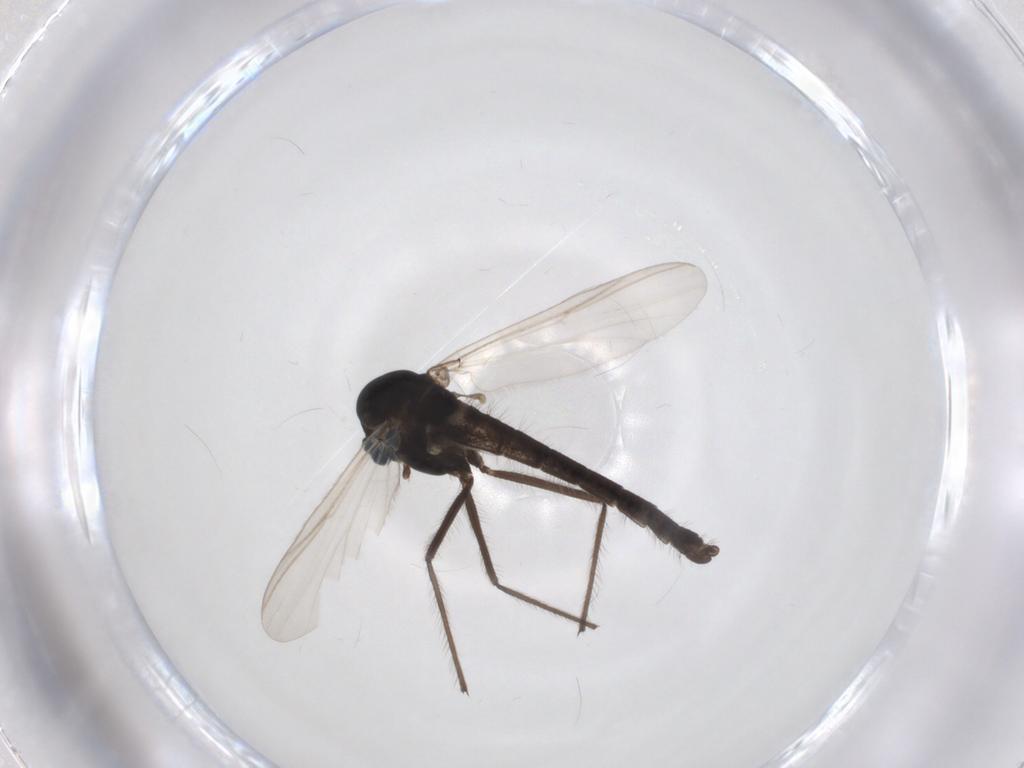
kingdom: Animalia
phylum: Arthropoda
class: Insecta
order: Diptera
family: Chironomidae
